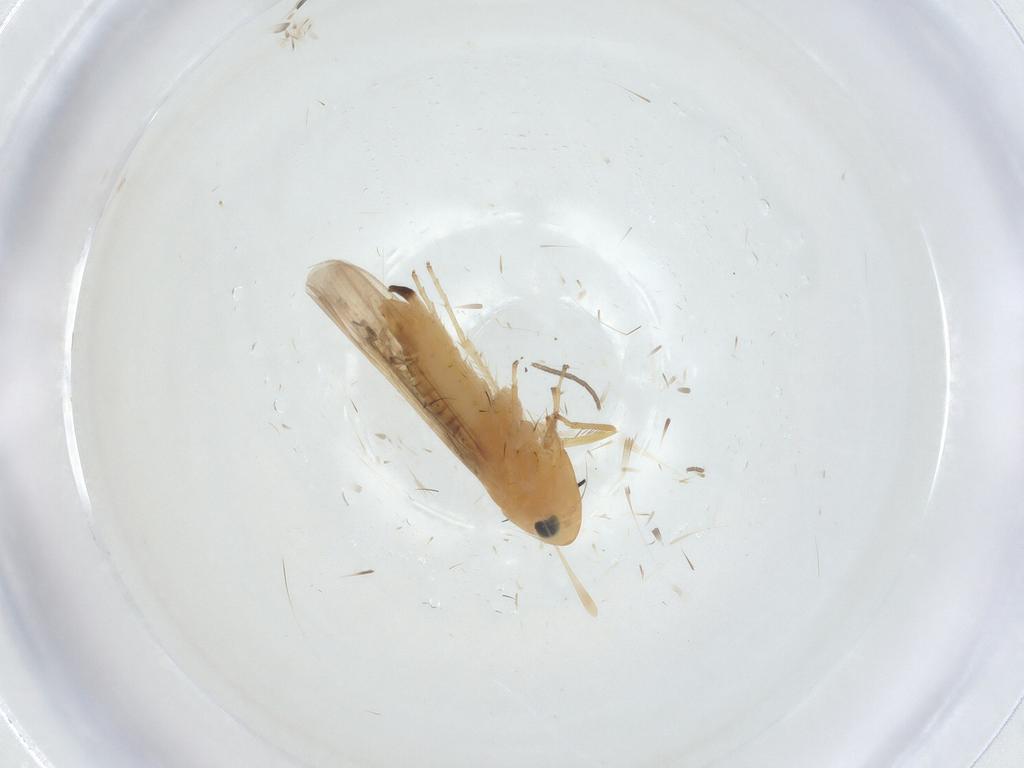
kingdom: Animalia
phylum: Arthropoda
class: Insecta
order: Hemiptera
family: Cicadellidae
